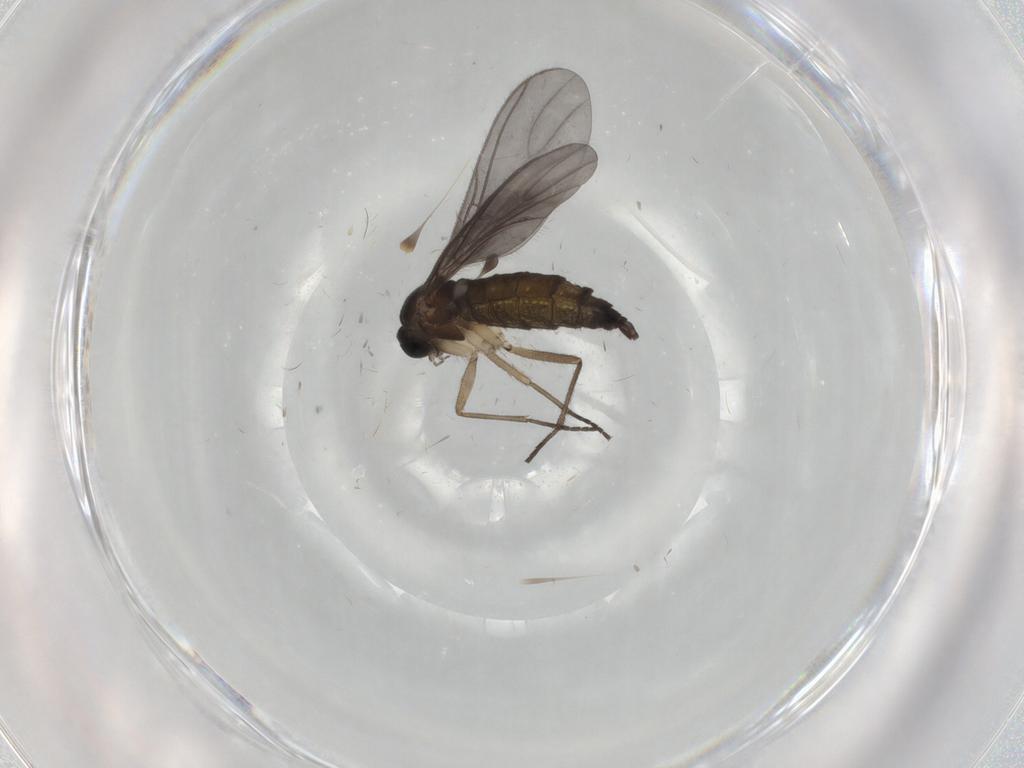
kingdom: Animalia
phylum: Arthropoda
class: Insecta
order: Diptera
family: Sciaridae
